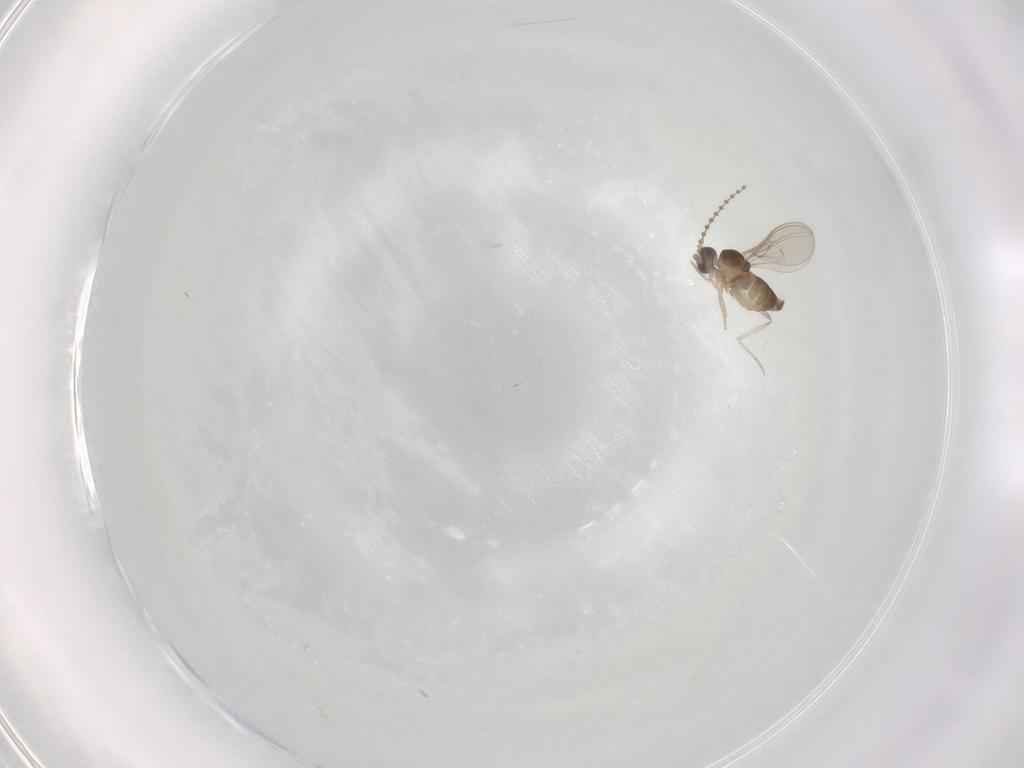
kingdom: Animalia
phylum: Arthropoda
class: Insecta
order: Diptera
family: Cecidomyiidae
